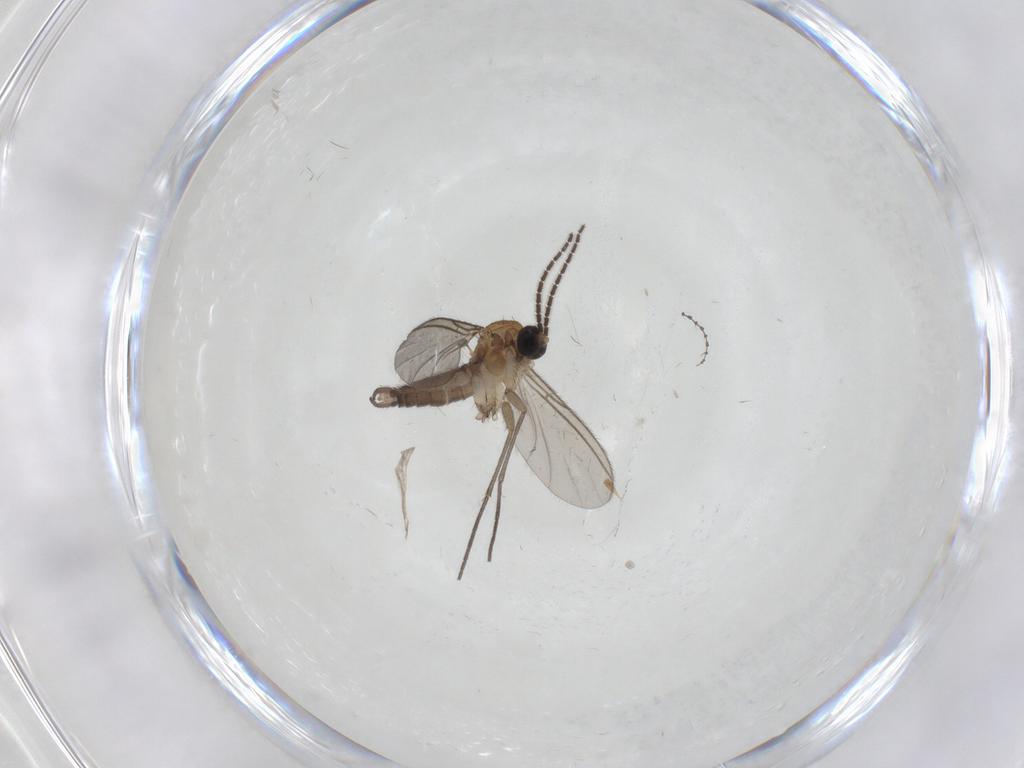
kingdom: Animalia
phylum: Arthropoda
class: Insecta
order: Diptera
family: Sciaridae
